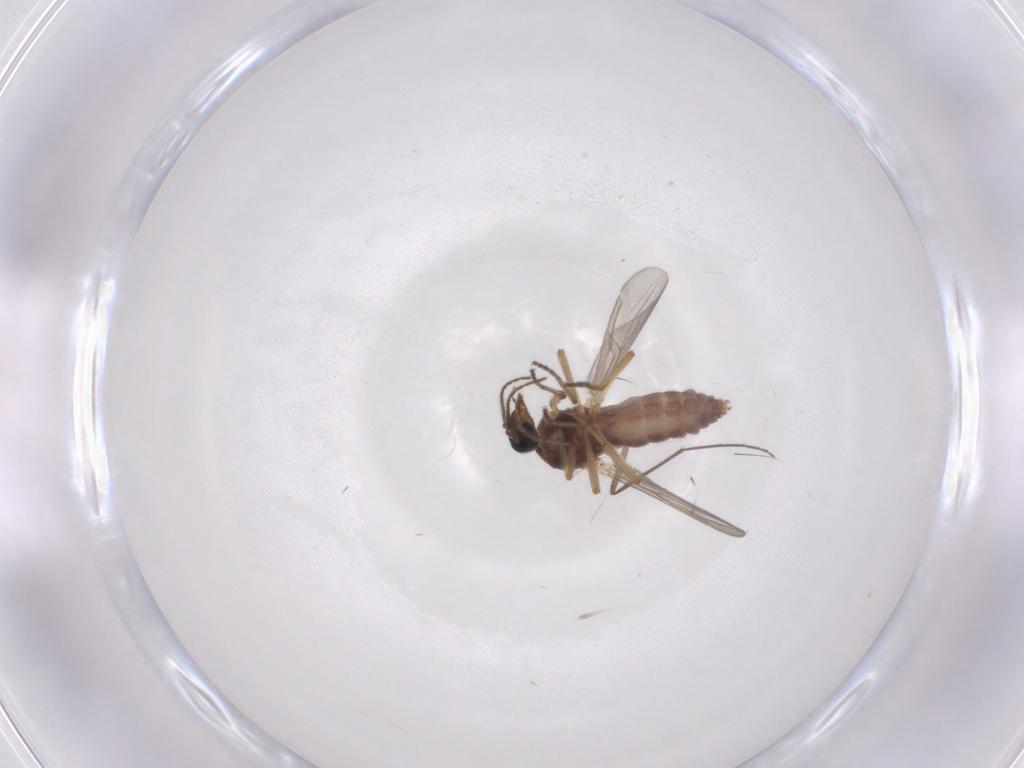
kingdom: Animalia
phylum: Arthropoda
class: Insecta
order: Diptera
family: Ceratopogonidae
